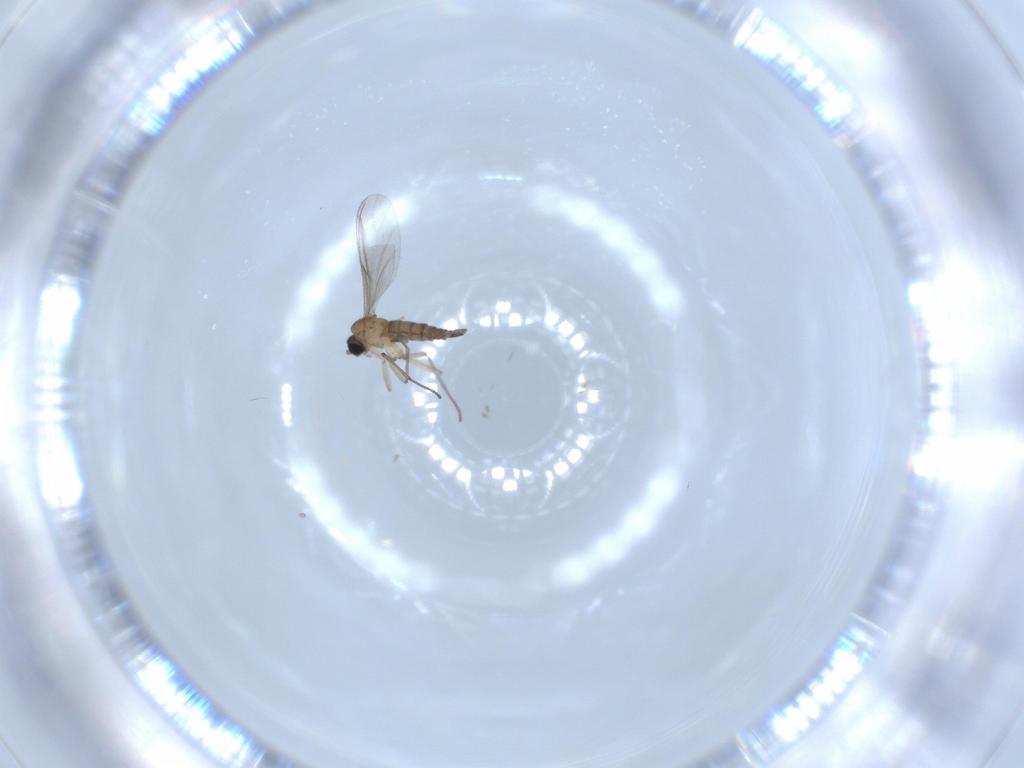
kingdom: Animalia
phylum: Arthropoda
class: Insecta
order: Diptera
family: Sciaridae
